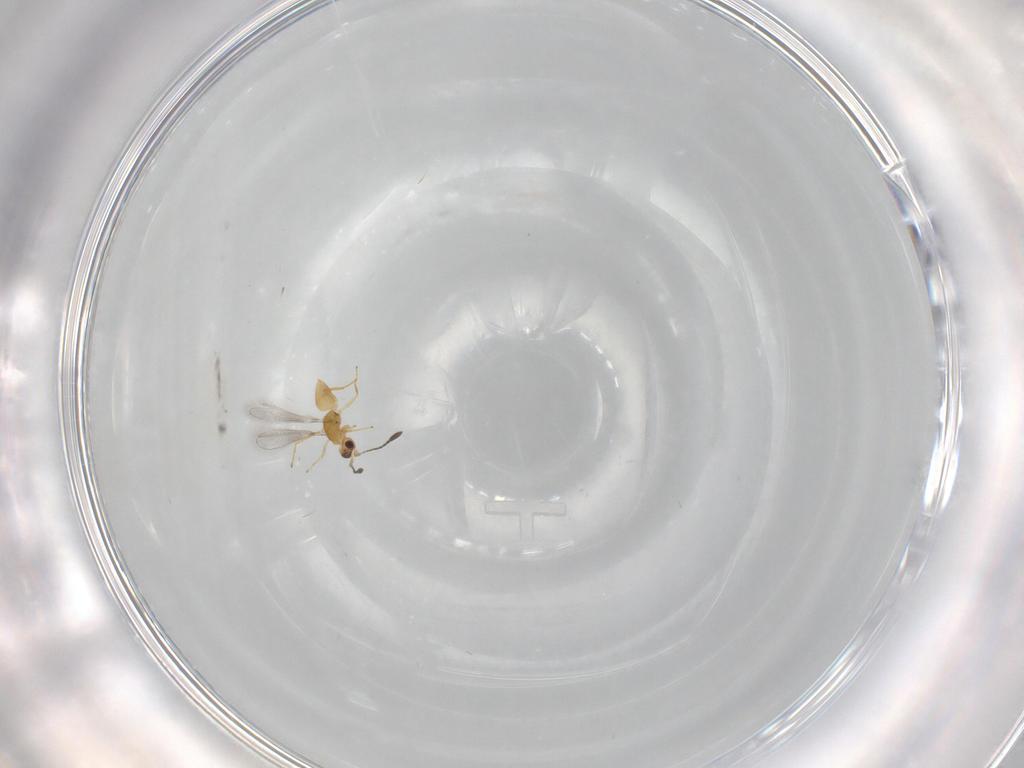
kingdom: Animalia
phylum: Arthropoda
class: Insecta
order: Hymenoptera
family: Mymaridae
